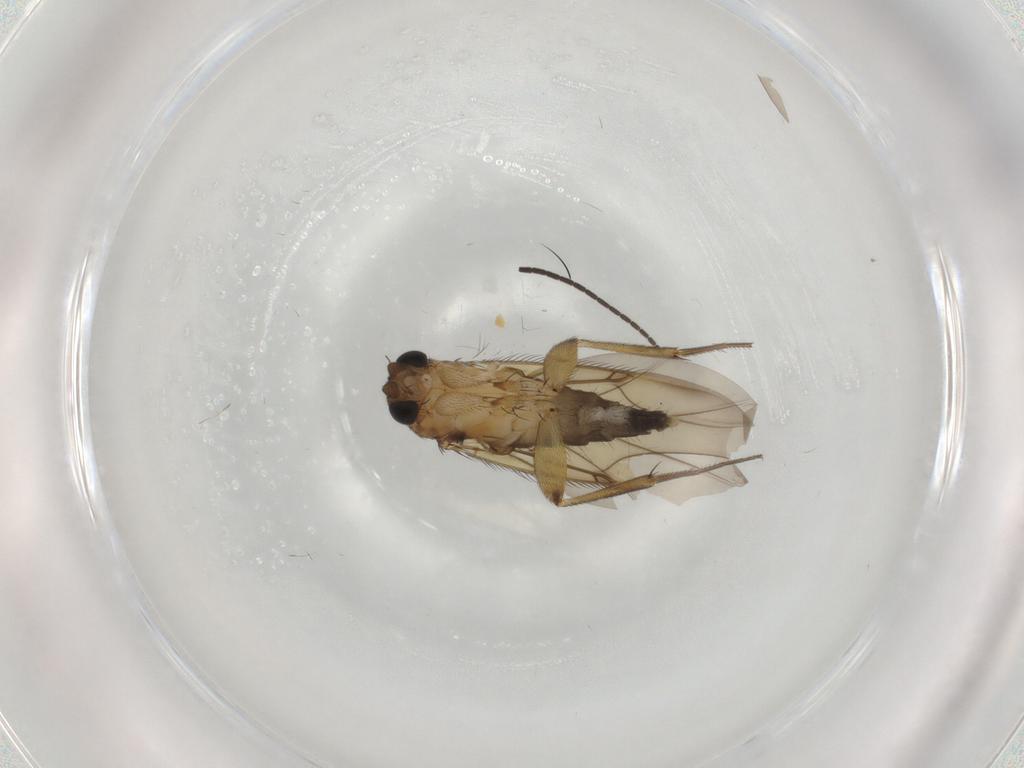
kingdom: Animalia
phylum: Arthropoda
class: Insecta
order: Diptera
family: Phoridae
